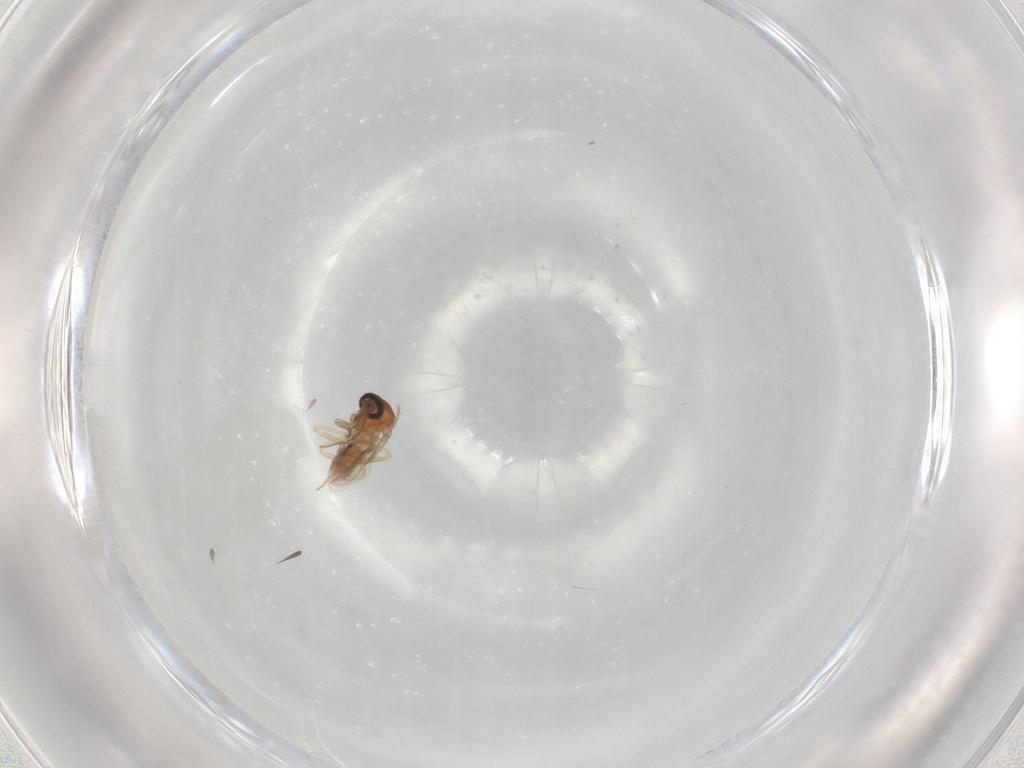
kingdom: Animalia
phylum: Arthropoda
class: Insecta
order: Diptera
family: Ceratopogonidae
